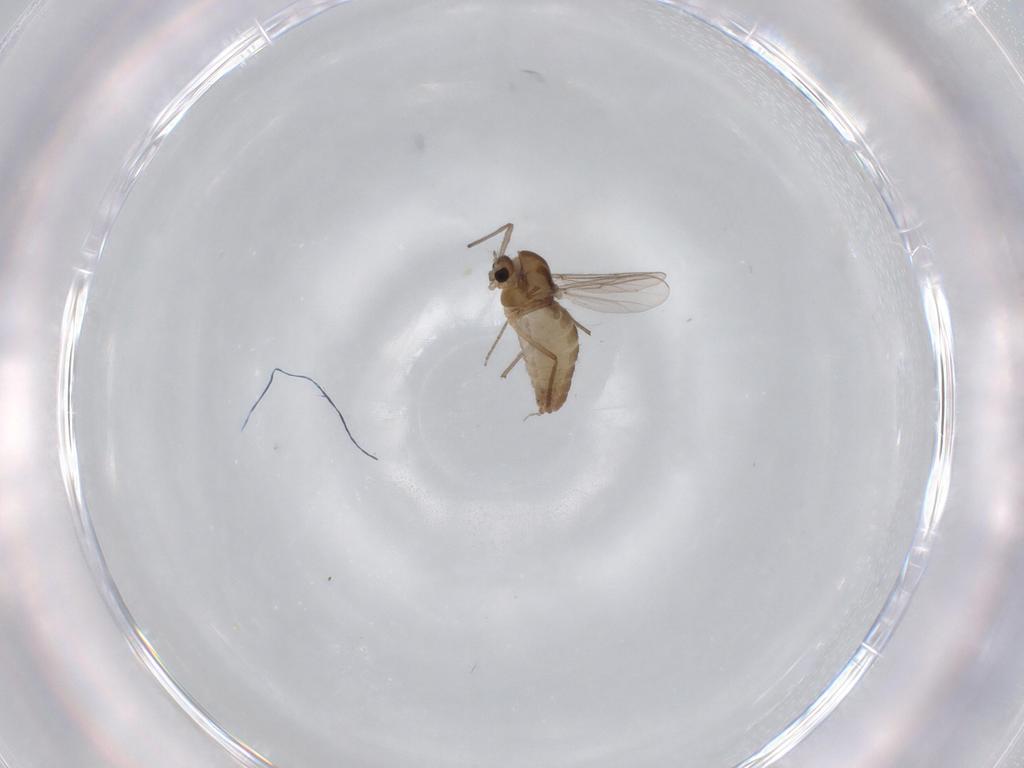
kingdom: Animalia
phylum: Arthropoda
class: Insecta
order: Diptera
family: Chironomidae
